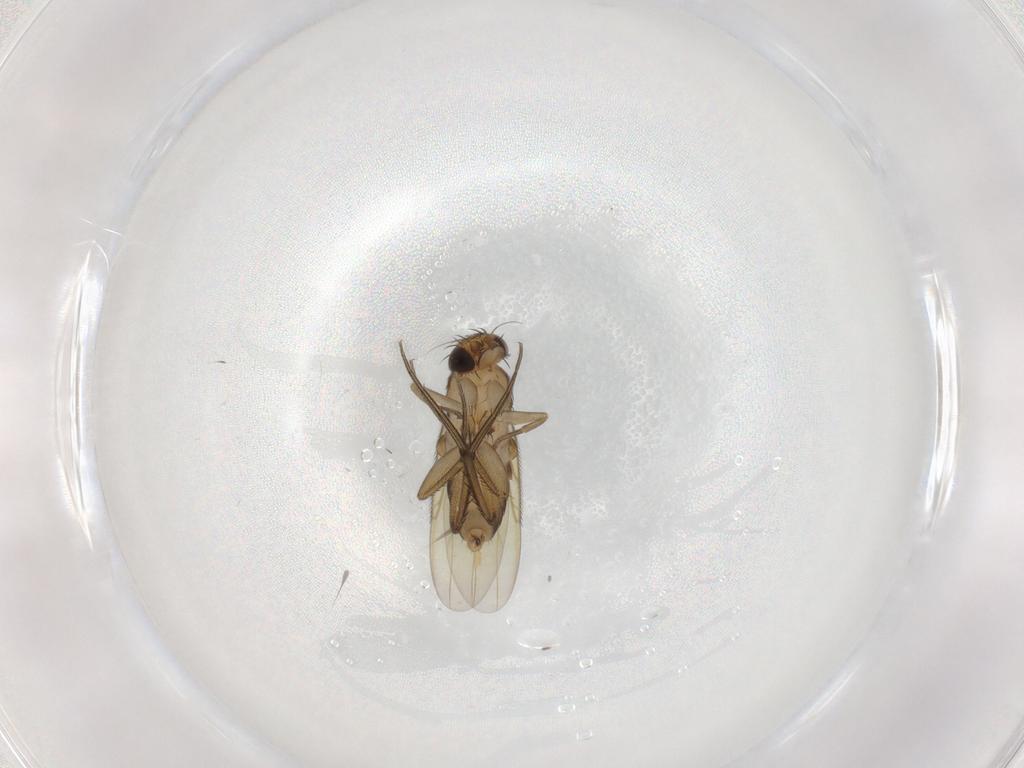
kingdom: Animalia
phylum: Arthropoda
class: Insecta
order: Diptera
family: Phoridae
